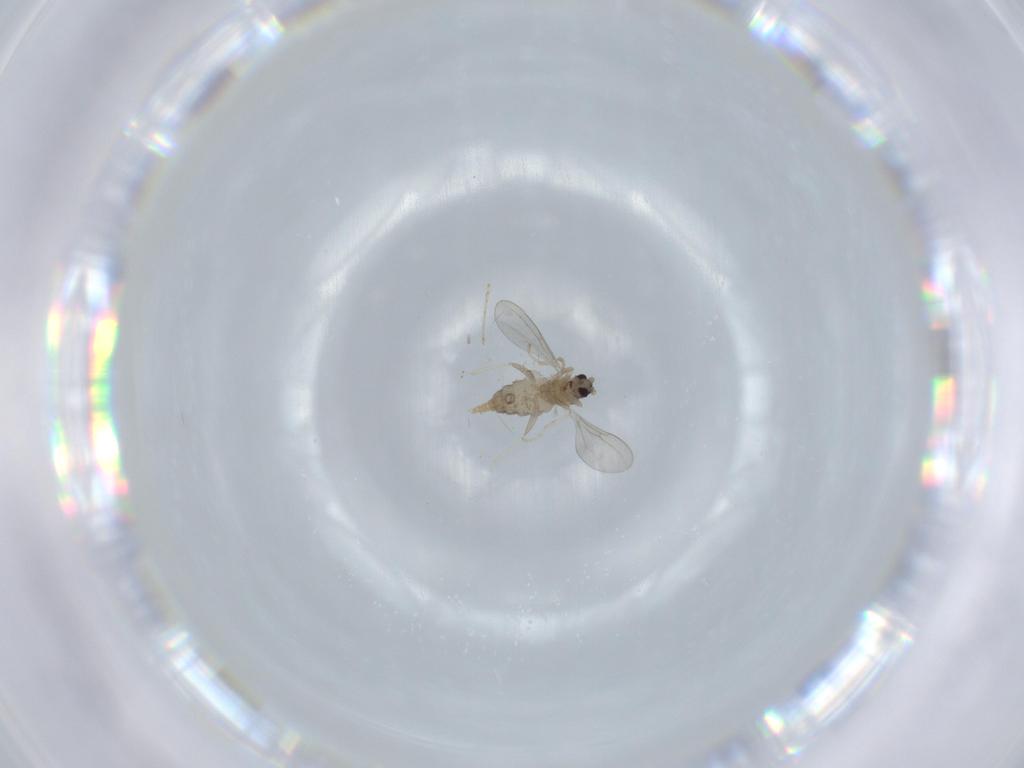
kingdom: Animalia
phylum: Arthropoda
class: Insecta
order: Diptera
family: Cecidomyiidae
